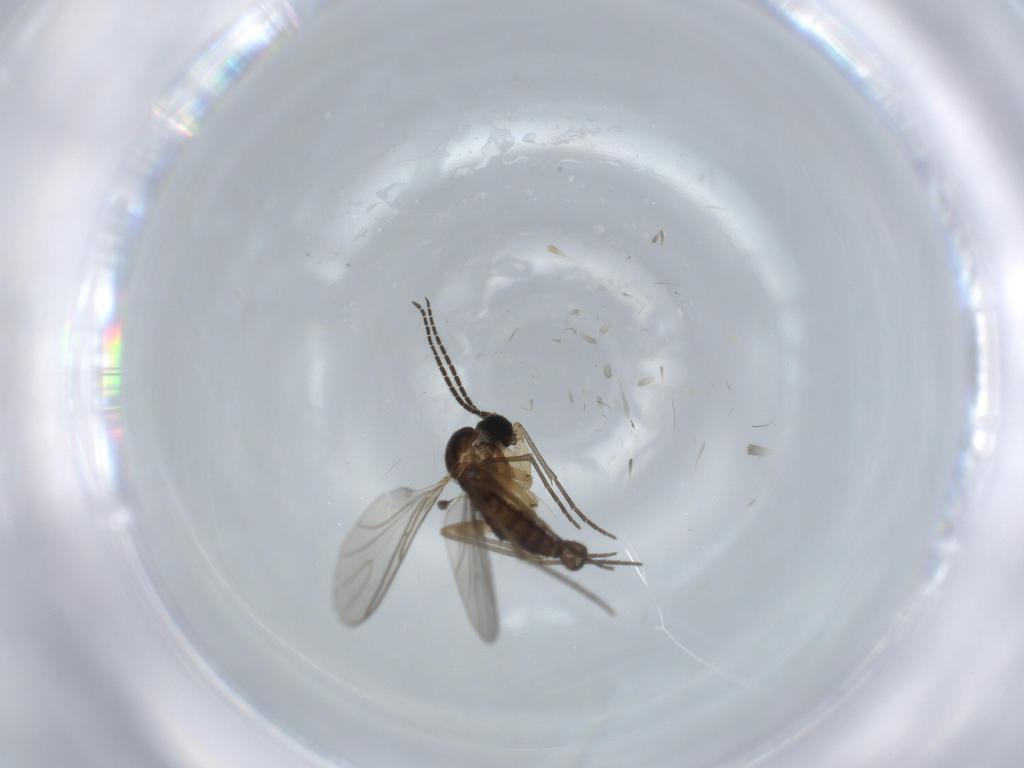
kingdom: Animalia
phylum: Arthropoda
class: Insecta
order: Diptera
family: Sciaridae
